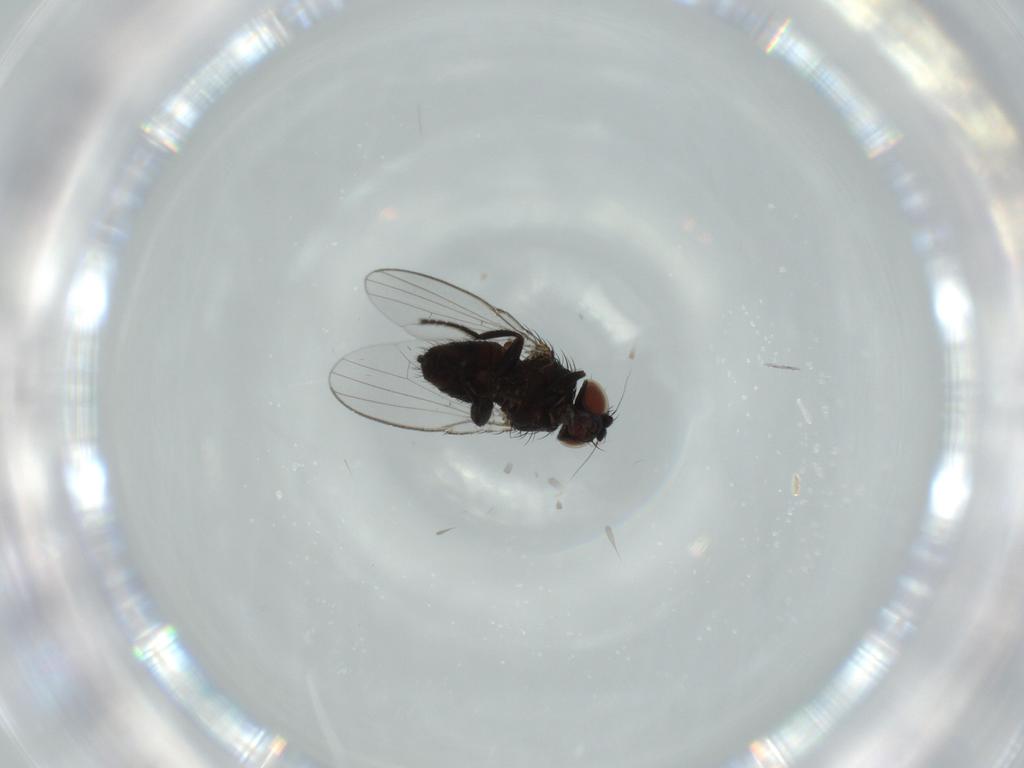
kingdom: Animalia
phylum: Arthropoda
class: Insecta
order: Diptera
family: Milichiidae
